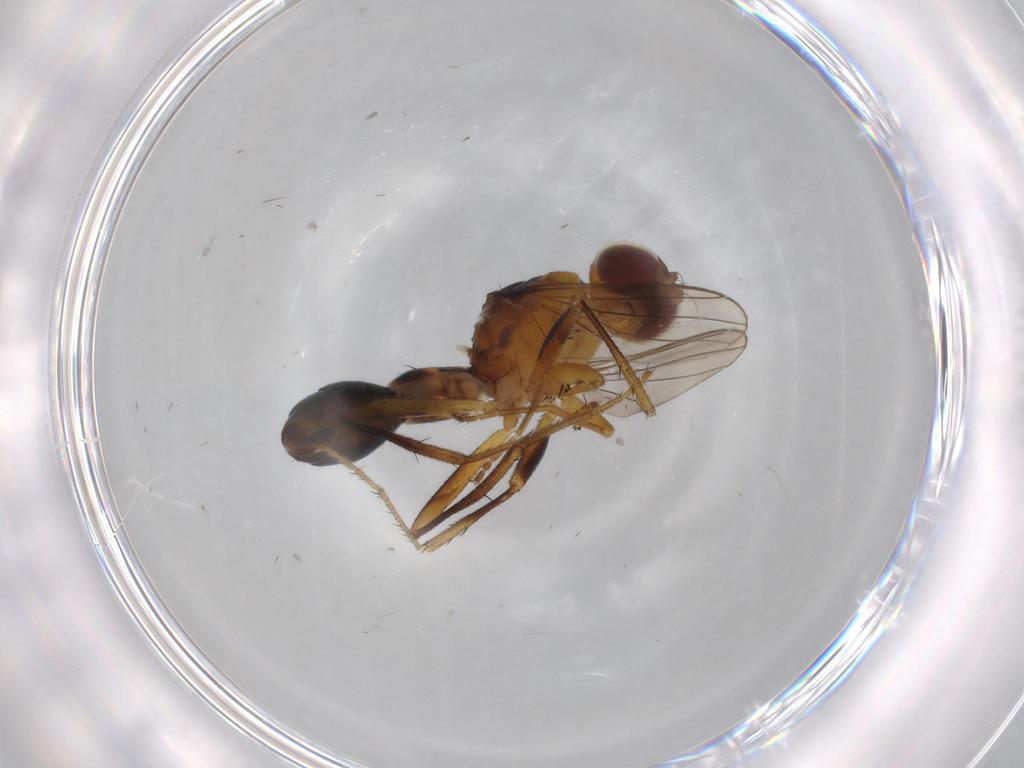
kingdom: Animalia
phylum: Arthropoda
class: Insecta
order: Diptera
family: Sepsidae
